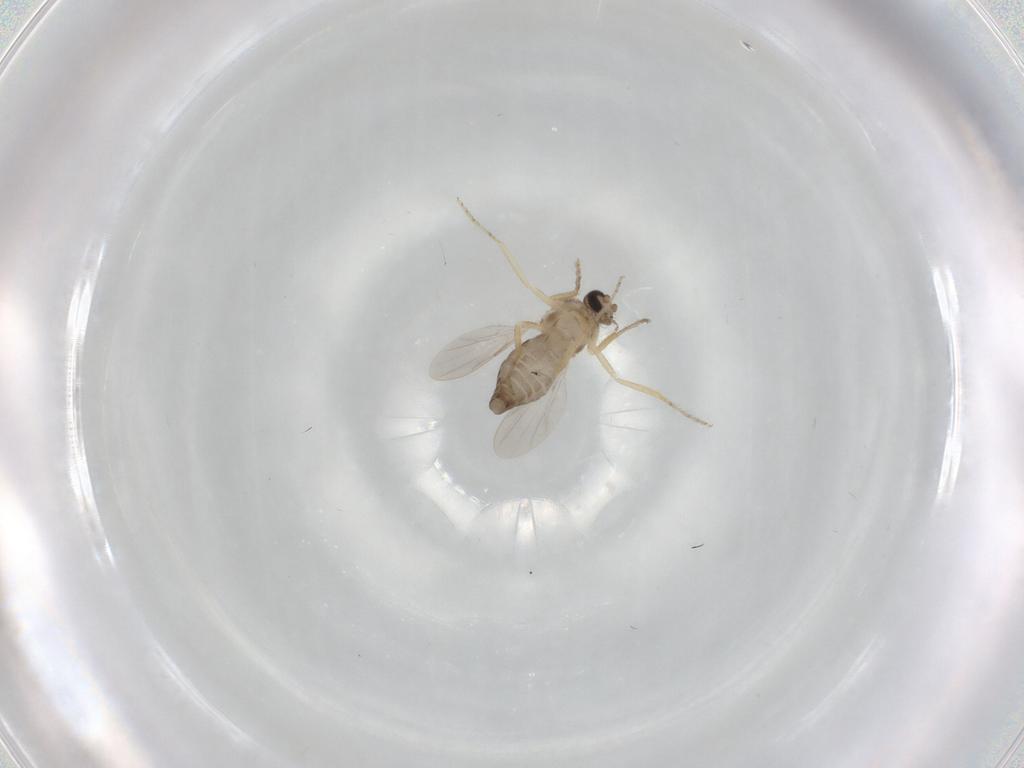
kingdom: Animalia
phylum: Arthropoda
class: Insecta
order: Diptera
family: Ceratopogonidae
